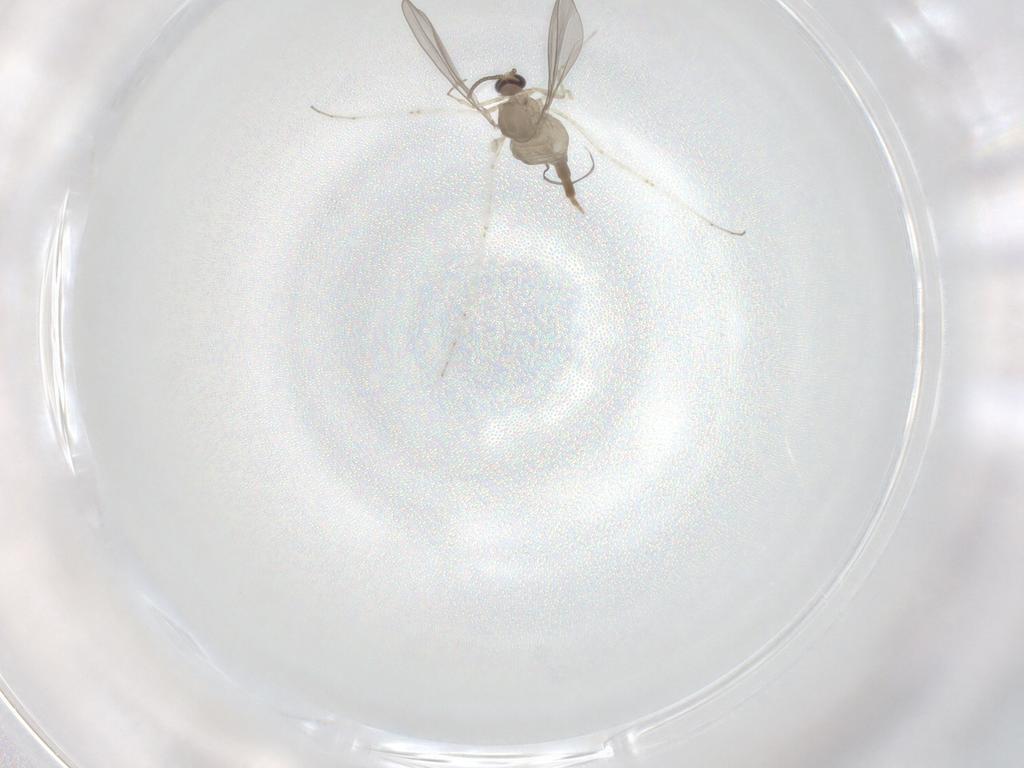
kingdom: Animalia
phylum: Arthropoda
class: Insecta
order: Diptera
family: Cecidomyiidae
